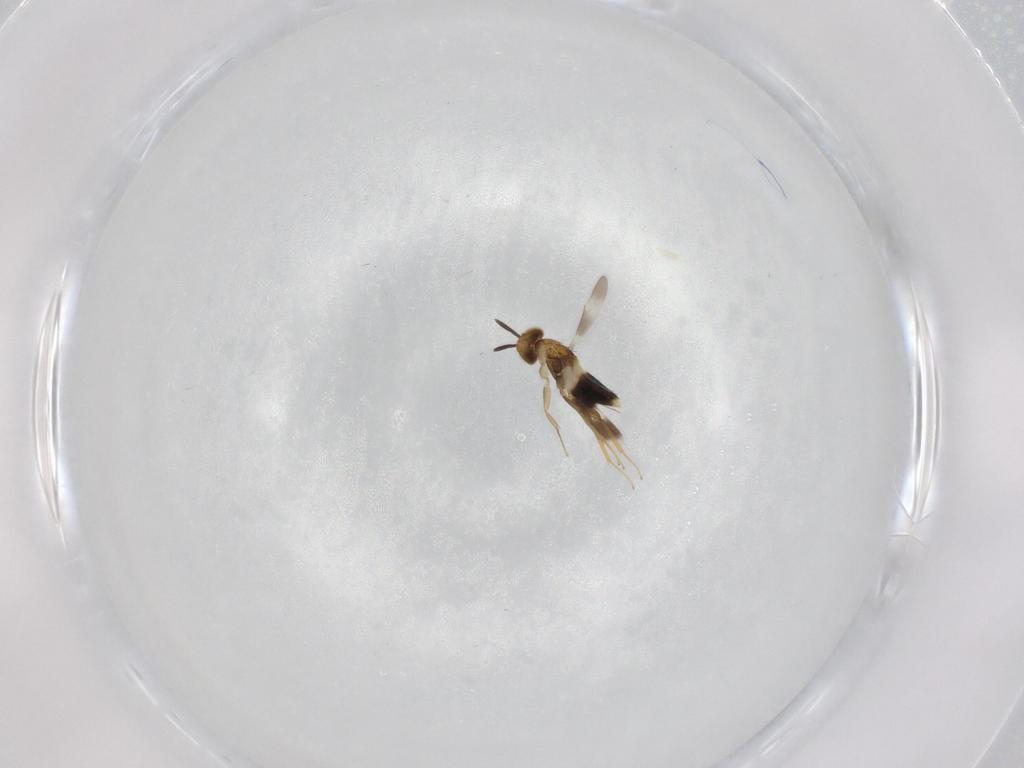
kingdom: Animalia
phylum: Arthropoda
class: Insecta
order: Hymenoptera
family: Aphelinidae
